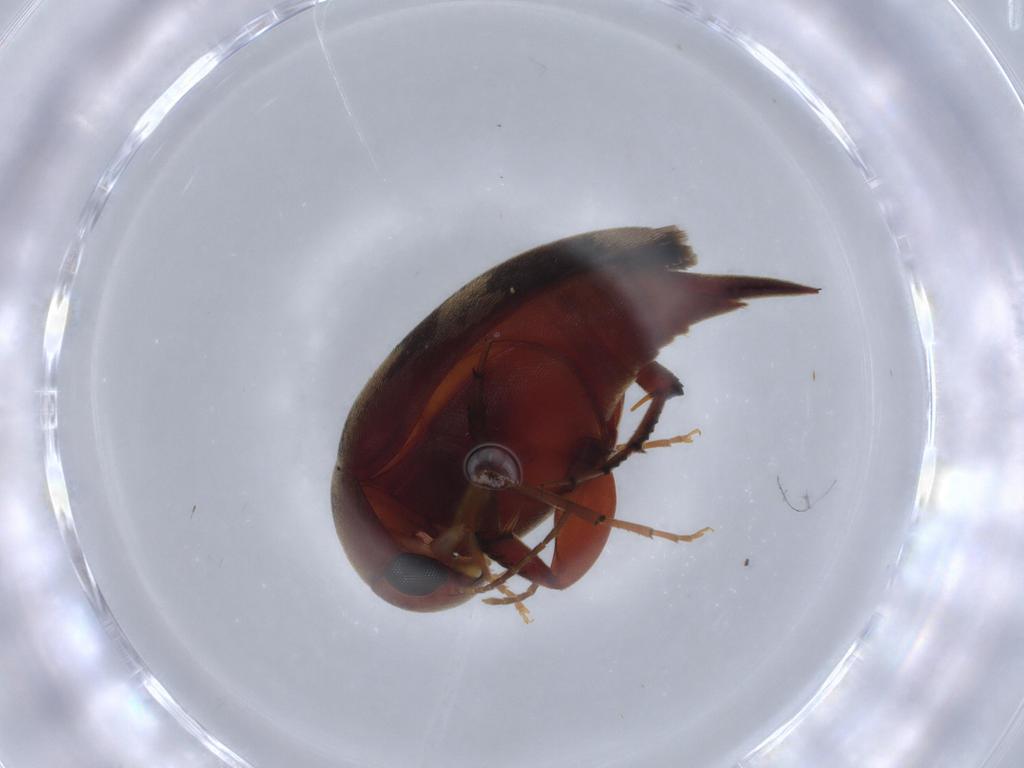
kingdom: Animalia
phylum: Arthropoda
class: Insecta
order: Coleoptera
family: Mordellidae
